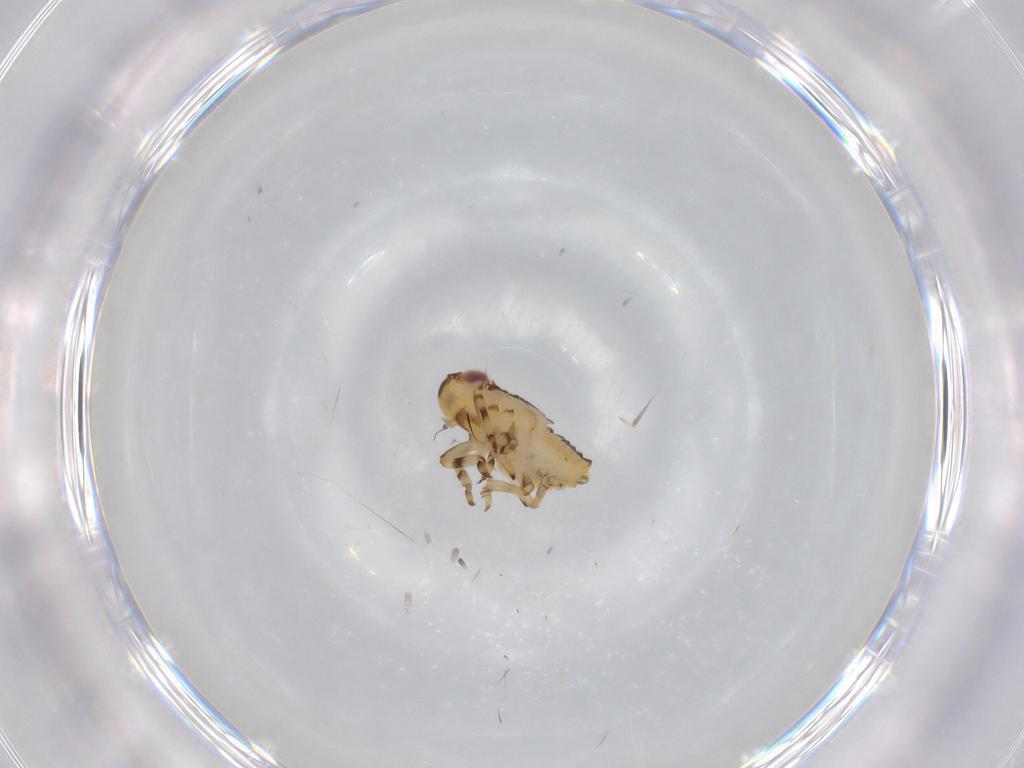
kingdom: Animalia
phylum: Arthropoda
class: Insecta
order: Hemiptera
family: Issidae
